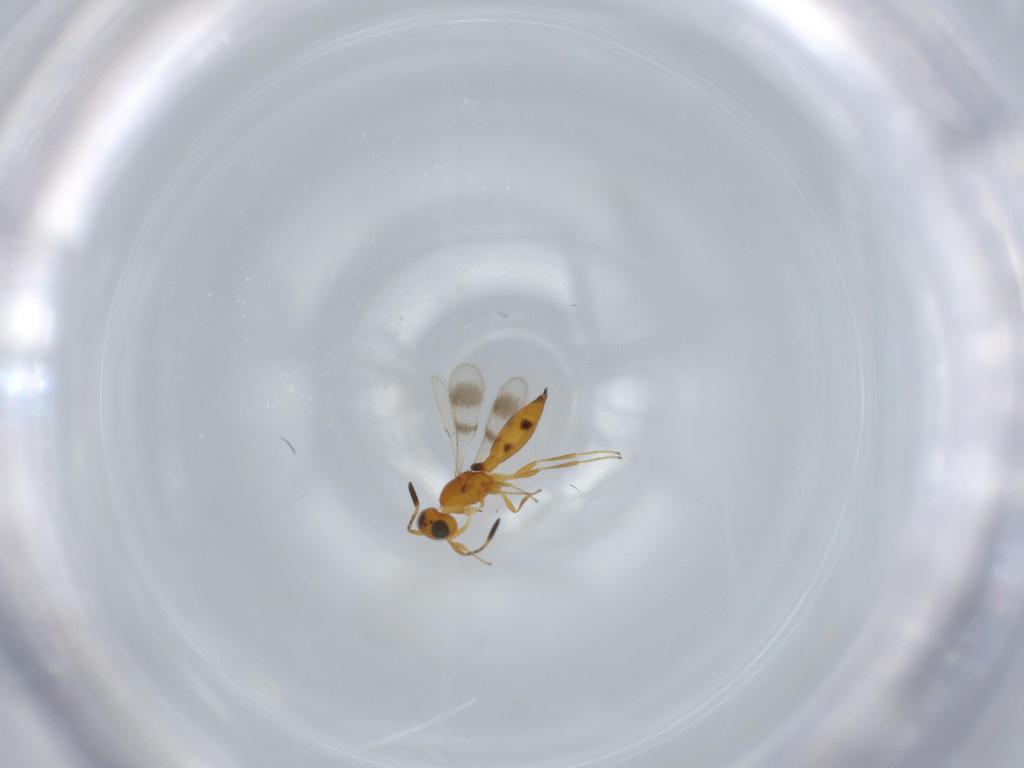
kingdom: Animalia
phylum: Arthropoda
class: Insecta
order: Hymenoptera
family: Scelionidae
